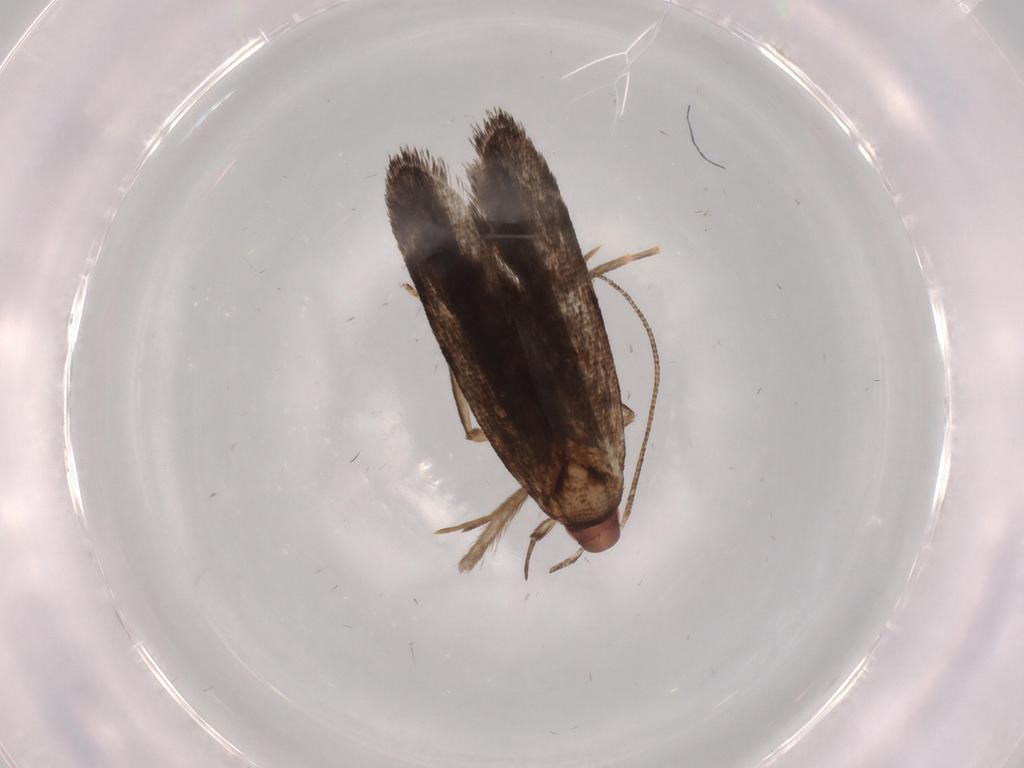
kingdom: Animalia
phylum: Arthropoda
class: Insecta
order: Lepidoptera
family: Gelechiidae
